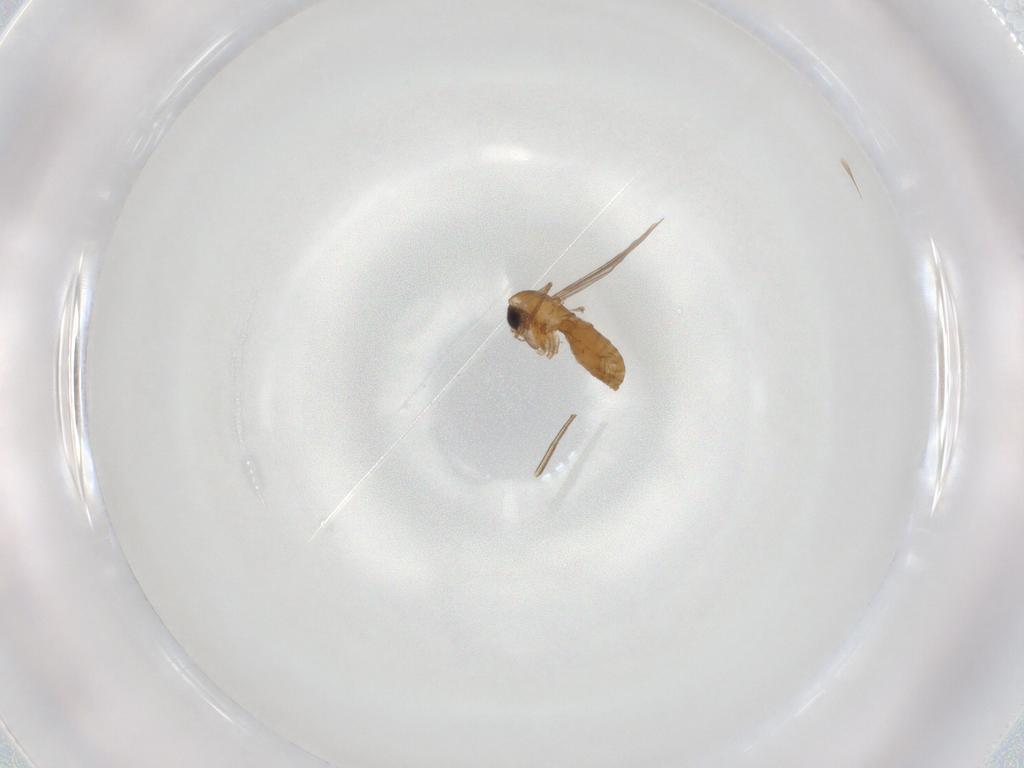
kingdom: Animalia
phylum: Arthropoda
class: Insecta
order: Diptera
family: Chironomidae
